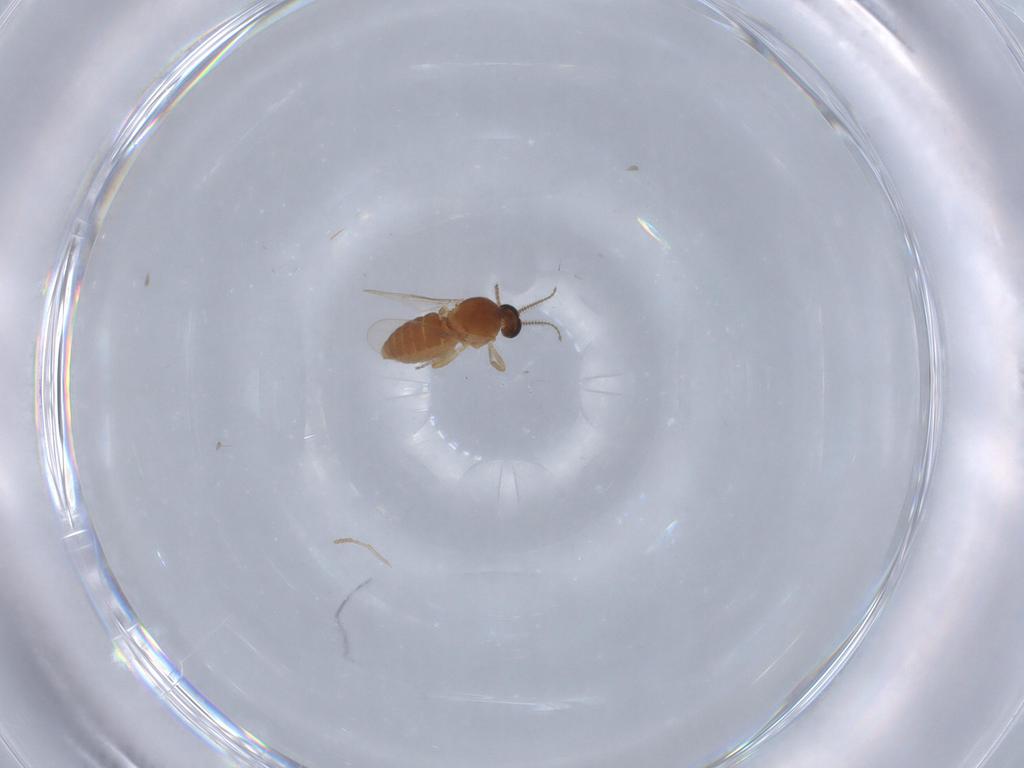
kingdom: Animalia
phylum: Arthropoda
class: Insecta
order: Diptera
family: Ceratopogonidae
